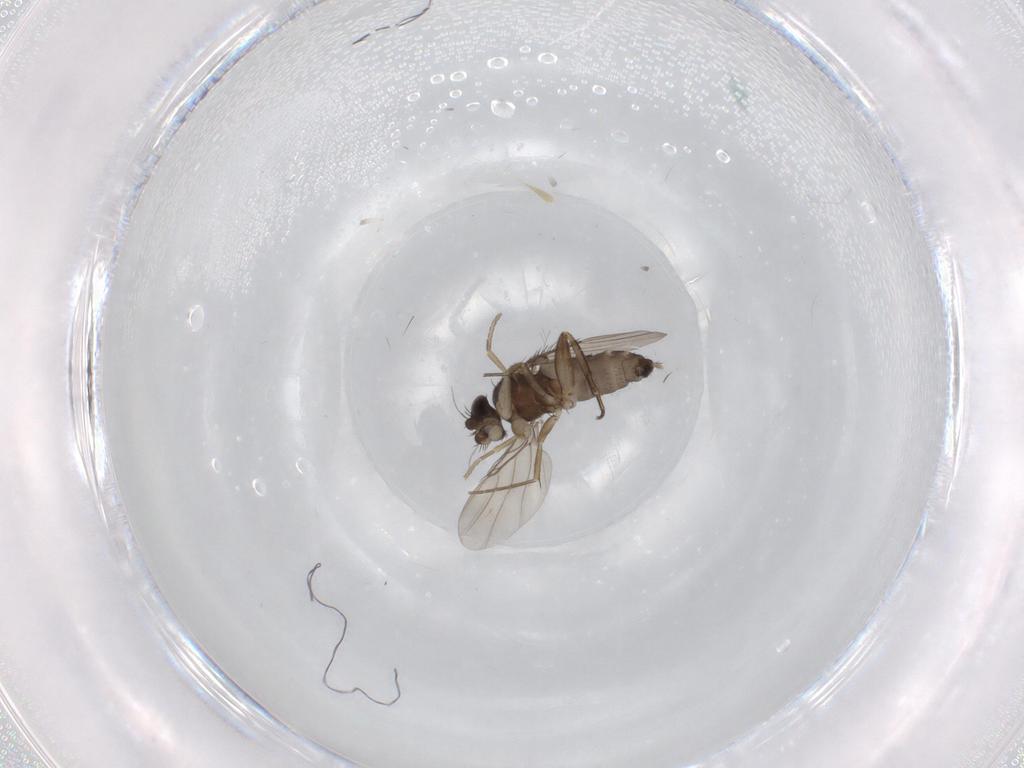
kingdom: Animalia
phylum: Arthropoda
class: Insecta
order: Diptera
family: Phoridae
